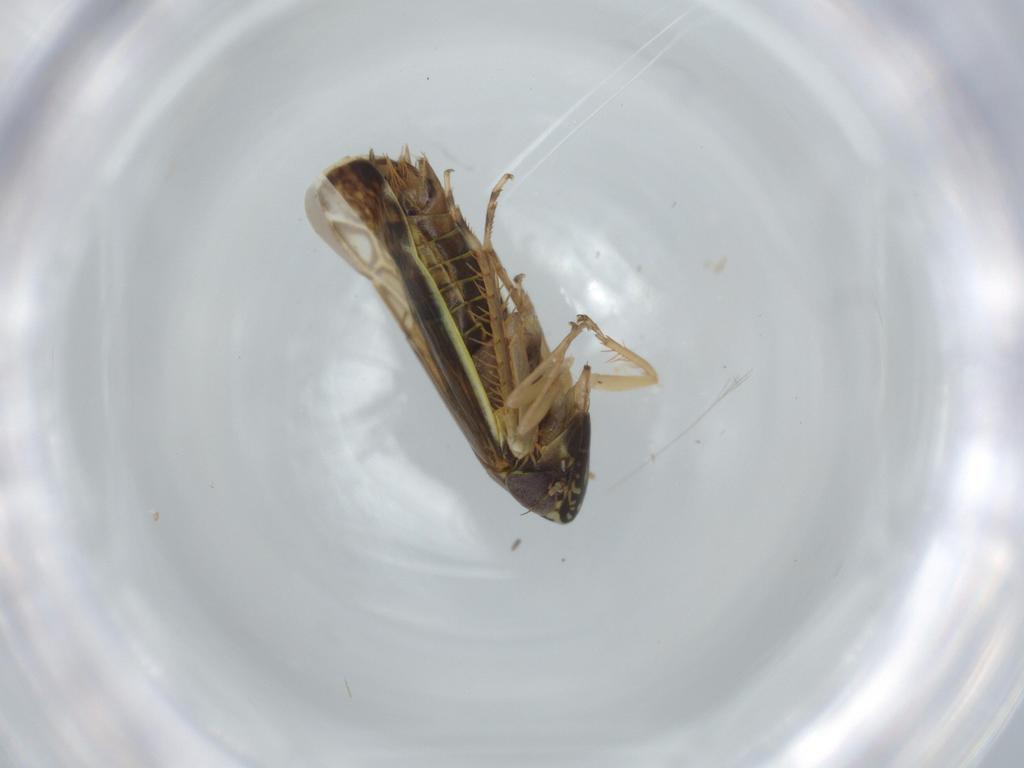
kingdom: Animalia
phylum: Arthropoda
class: Insecta
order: Hemiptera
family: Cicadellidae
